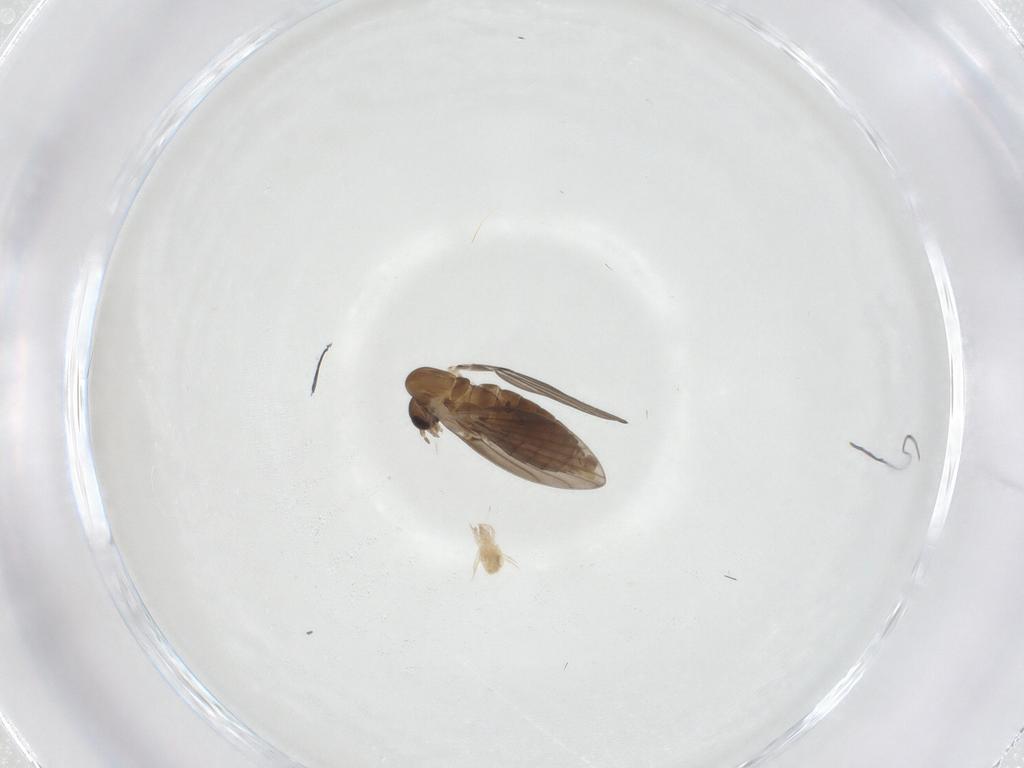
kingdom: Animalia
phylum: Arthropoda
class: Insecta
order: Diptera
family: Psychodidae
